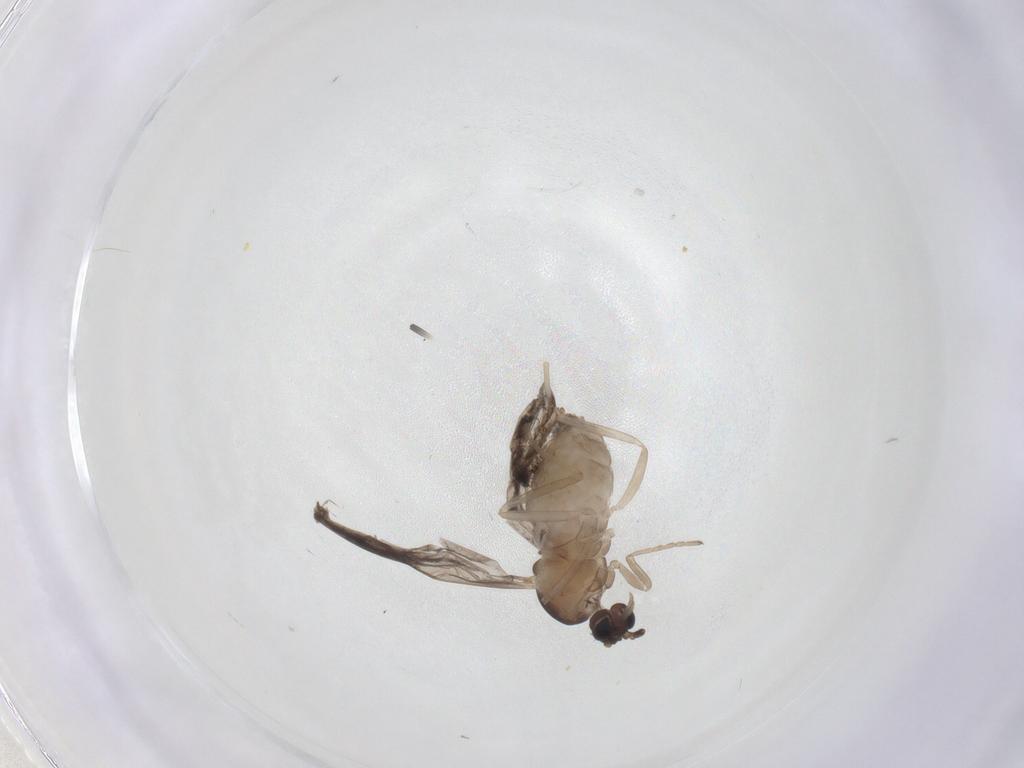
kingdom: Animalia
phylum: Arthropoda
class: Insecta
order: Diptera
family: Cecidomyiidae
